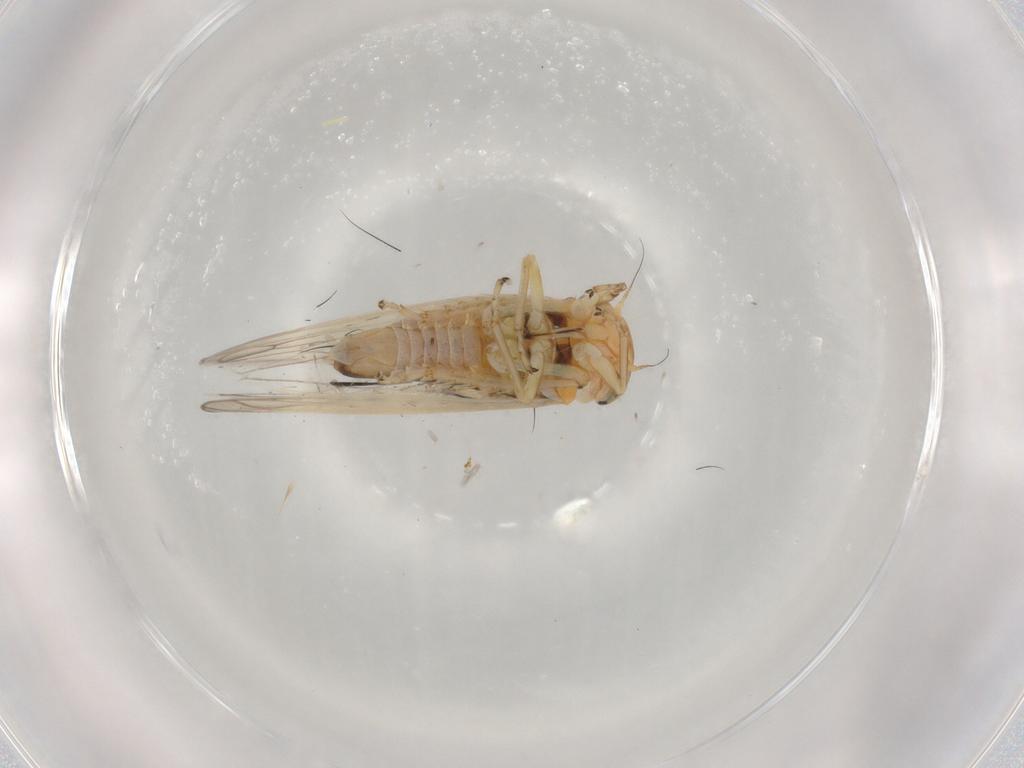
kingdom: Animalia
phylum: Arthropoda
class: Insecta
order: Hemiptera
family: Cicadellidae
